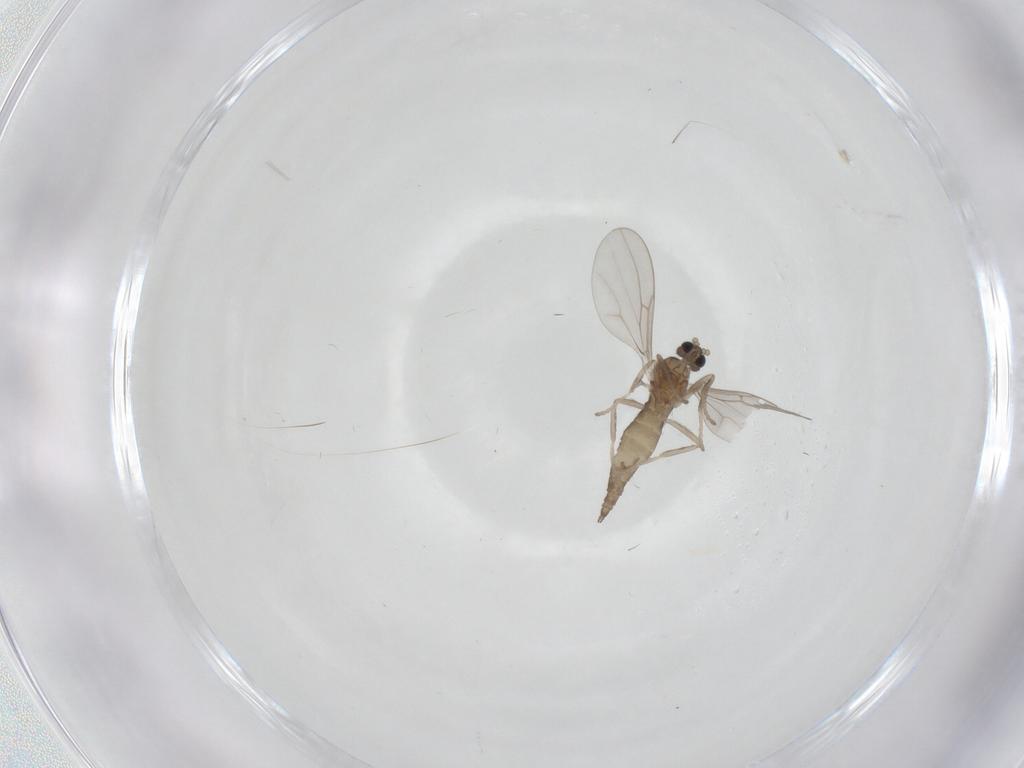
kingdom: Animalia
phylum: Arthropoda
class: Insecta
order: Diptera
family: Cecidomyiidae
